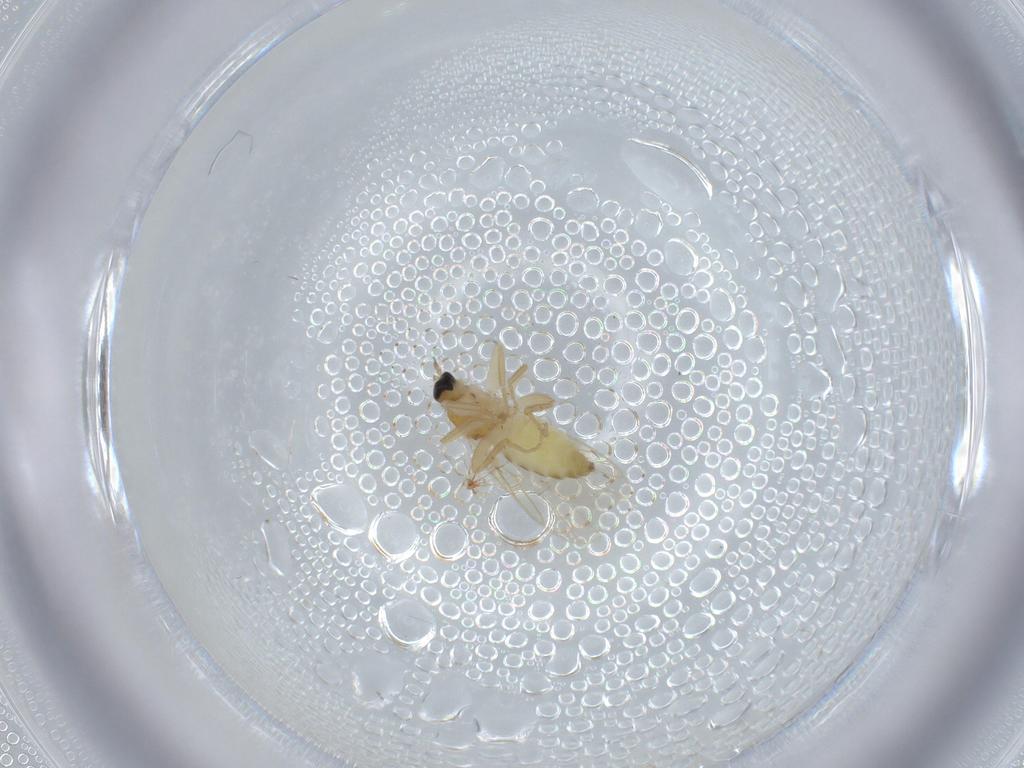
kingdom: Animalia
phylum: Arthropoda
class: Insecta
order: Diptera
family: Hybotidae
